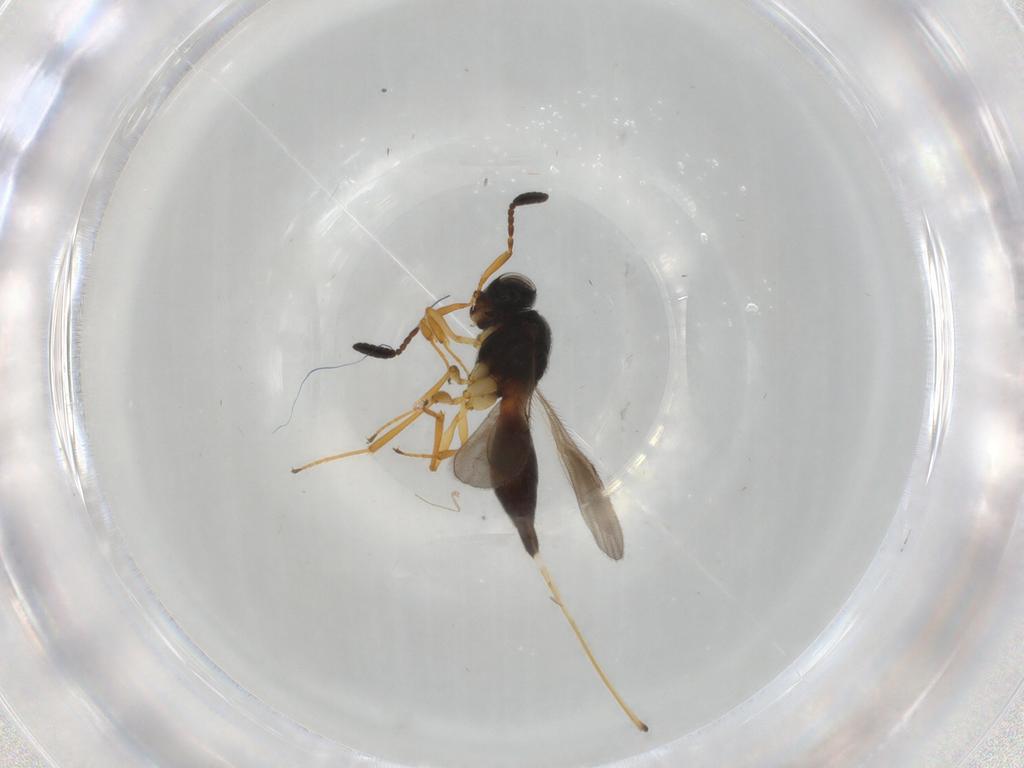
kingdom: Animalia
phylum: Arthropoda
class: Insecta
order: Hymenoptera
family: Scelionidae
